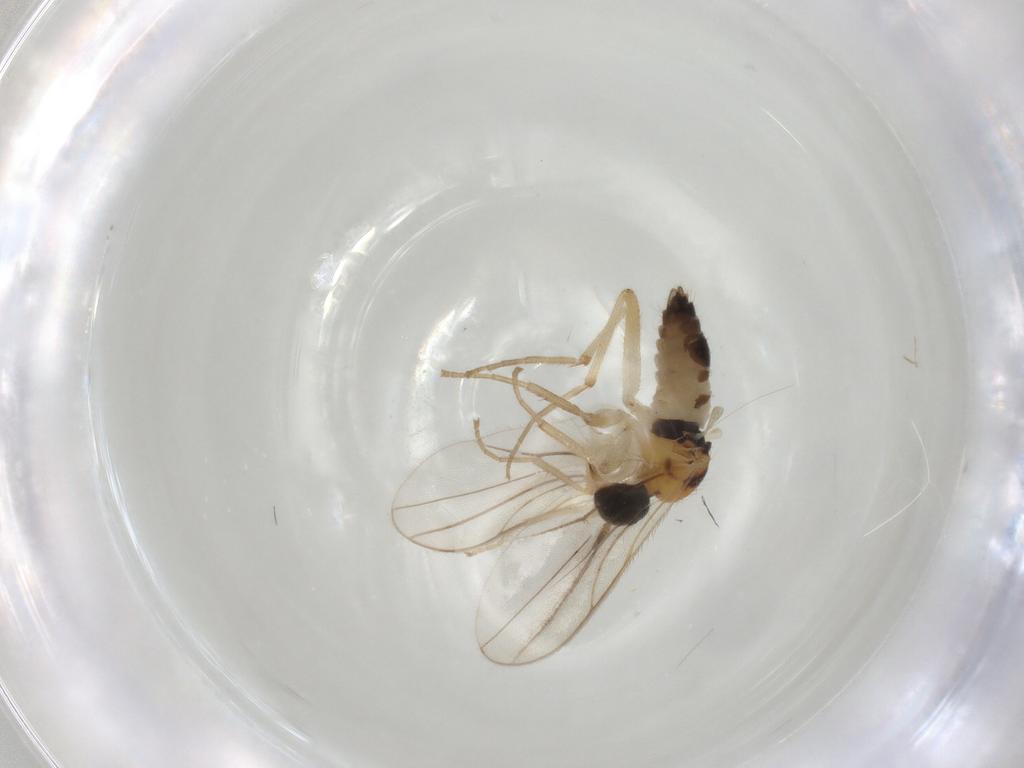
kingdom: Animalia
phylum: Arthropoda
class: Insecta
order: Diptera
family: Hybotidae
